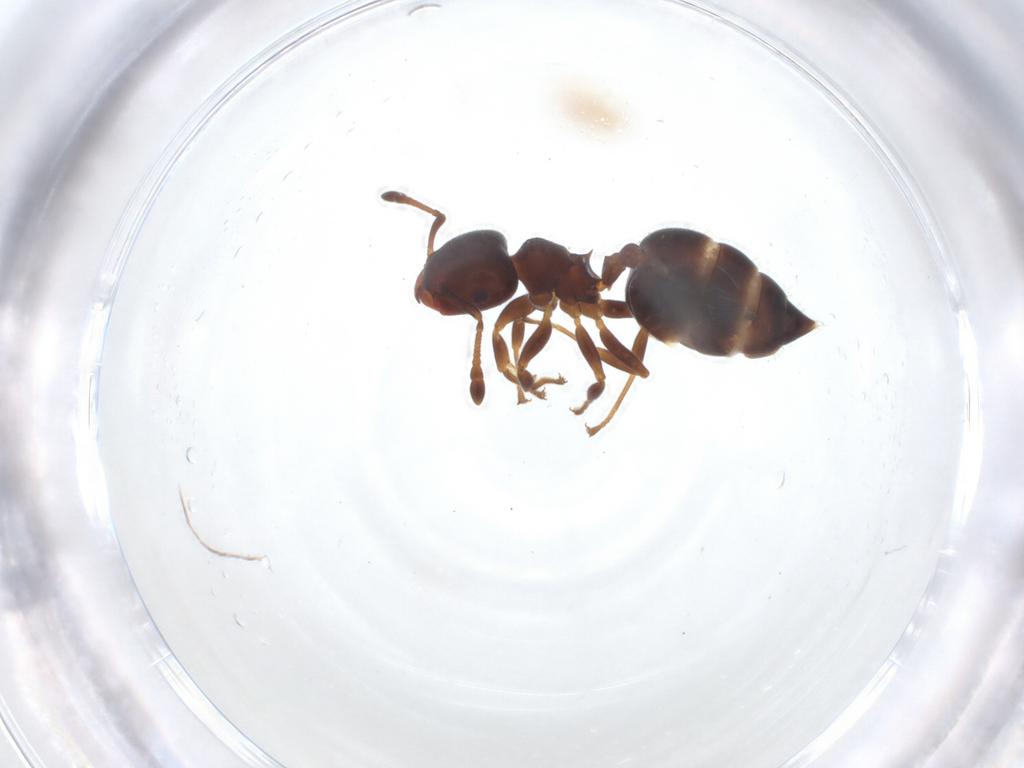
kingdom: Animalia
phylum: Arthropoda
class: Insecta
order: Hymenoptera
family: Formicidae
